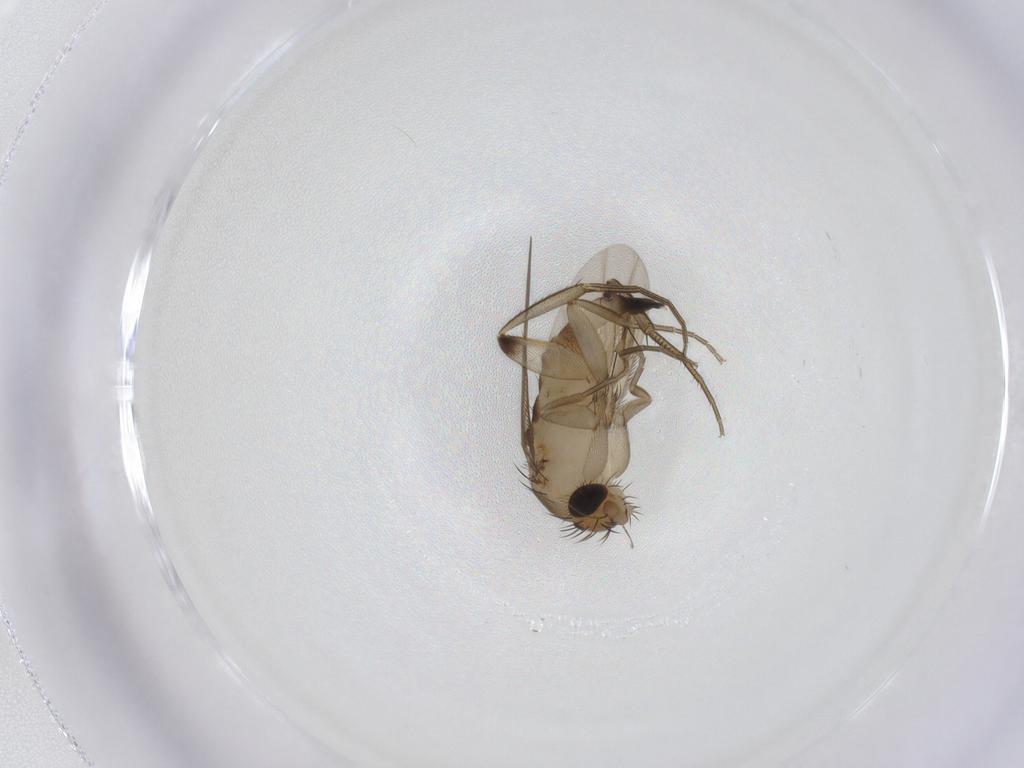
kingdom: Animalia
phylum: Arthropoda
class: Insecta
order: Diptera
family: Phoridae
